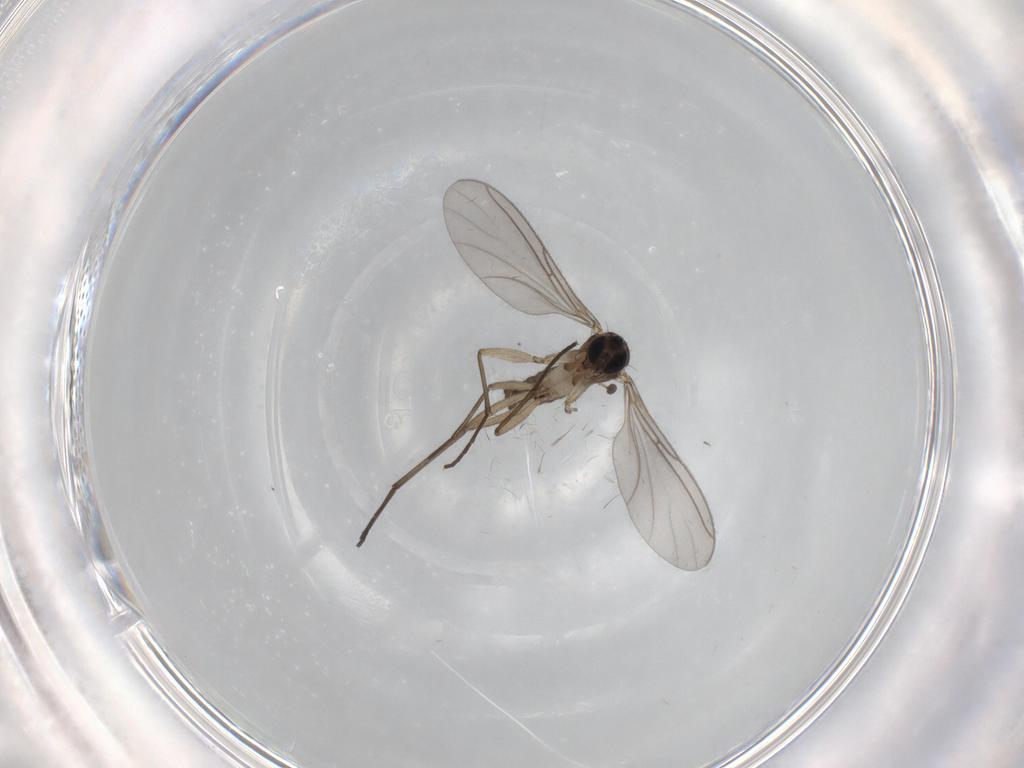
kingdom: Animalia
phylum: Arthropoda
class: Insecta
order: Diptera
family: Sciaridae
